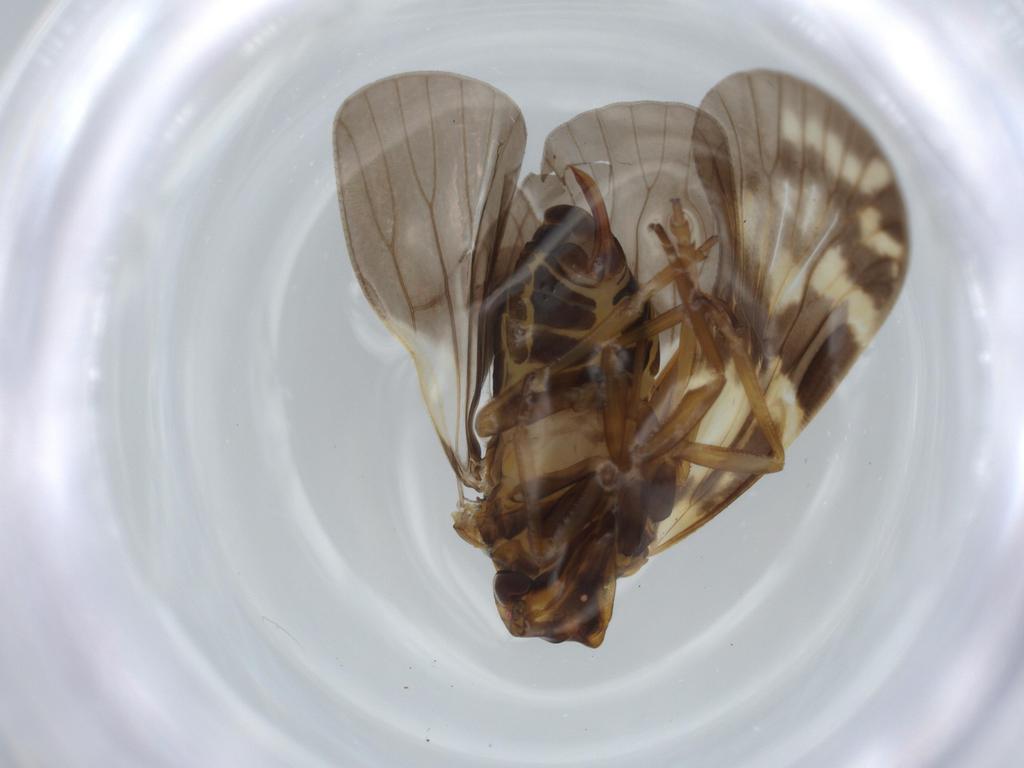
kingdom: Animalia
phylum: Arthropoda
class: Insecta
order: Hemiptera
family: Cixiidae
